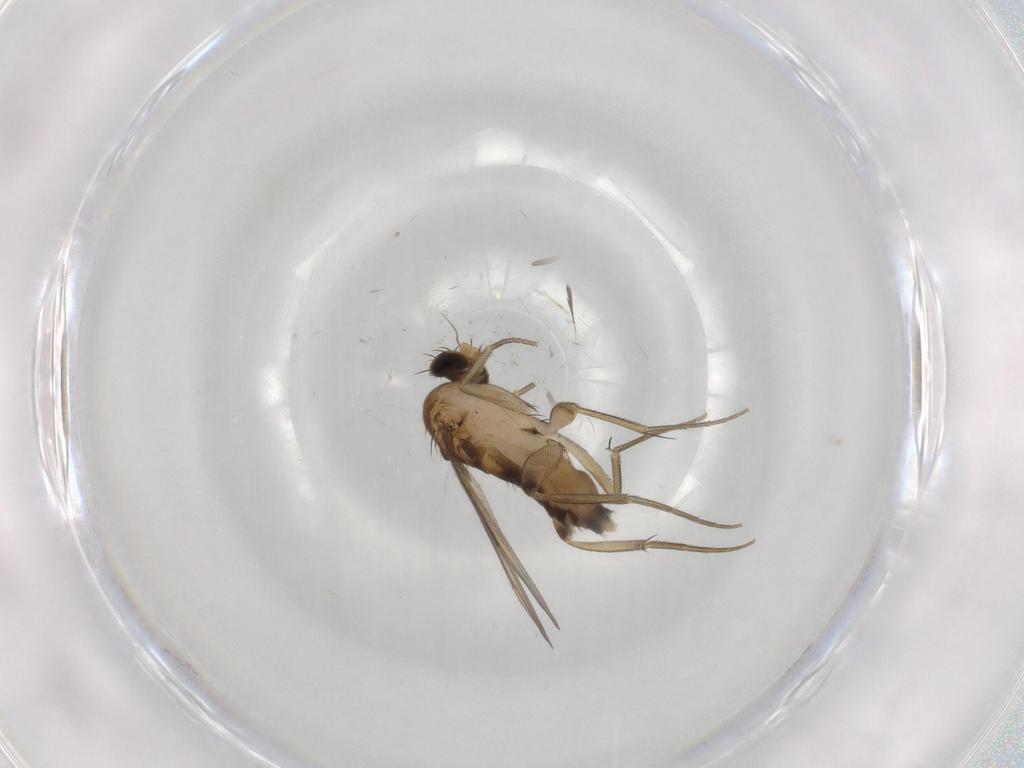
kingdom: Animalia
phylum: Arthropoda
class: Insecta
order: Diptera
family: Phoridae
